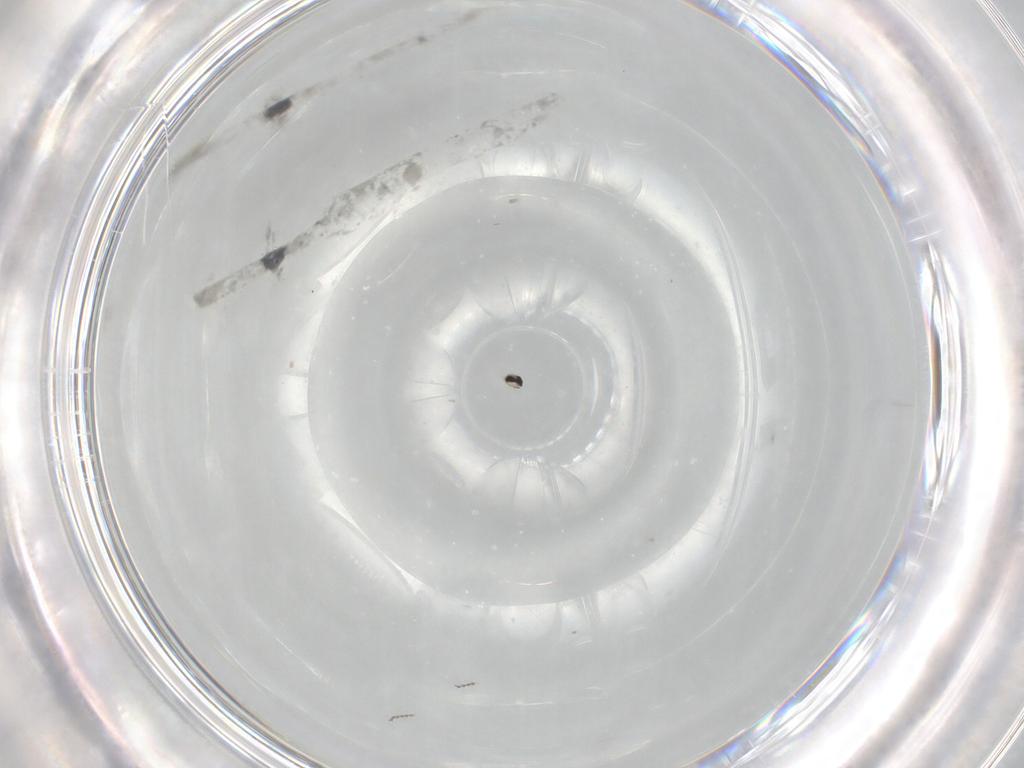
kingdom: Animalia
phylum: Arthropoda
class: Insecta
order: Diptera
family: Cecidomyiidae
